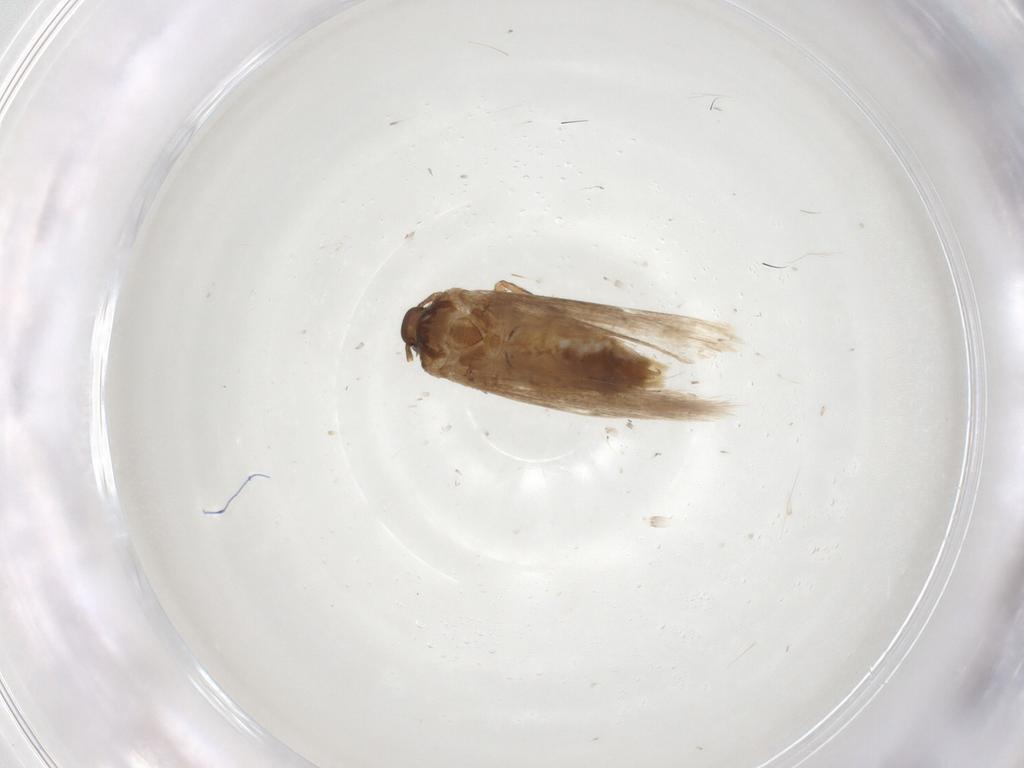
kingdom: Animalia
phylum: Arthropoda
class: Insecta
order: Lepidoptera
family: Gelechiidae
